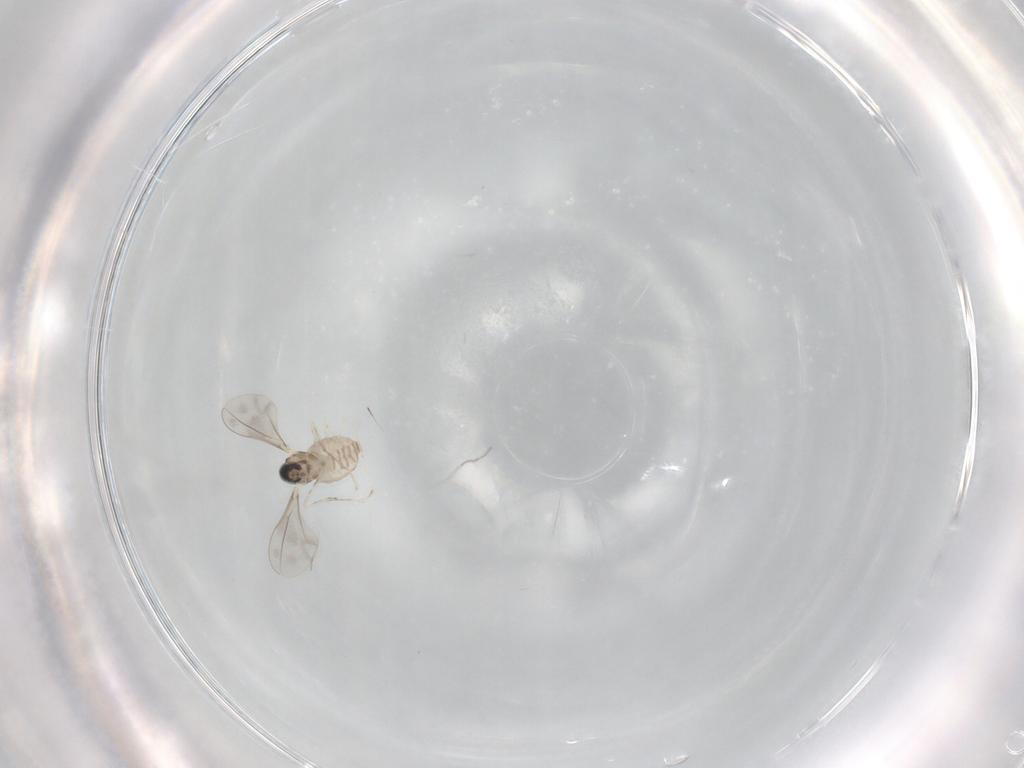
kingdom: Animalia
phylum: Arthropoda
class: Insecta
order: Diptera
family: Cecidomyiidae
